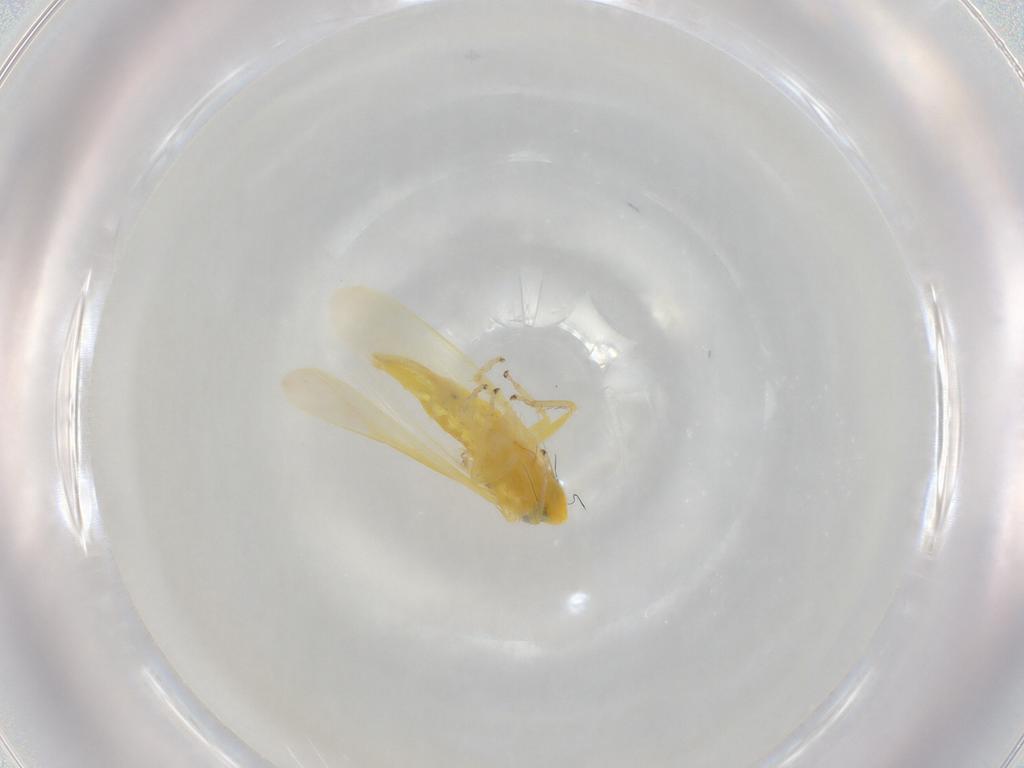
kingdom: Animalia
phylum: Arthropoda
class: Insecta
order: Hemiptera
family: Cicadellidae
